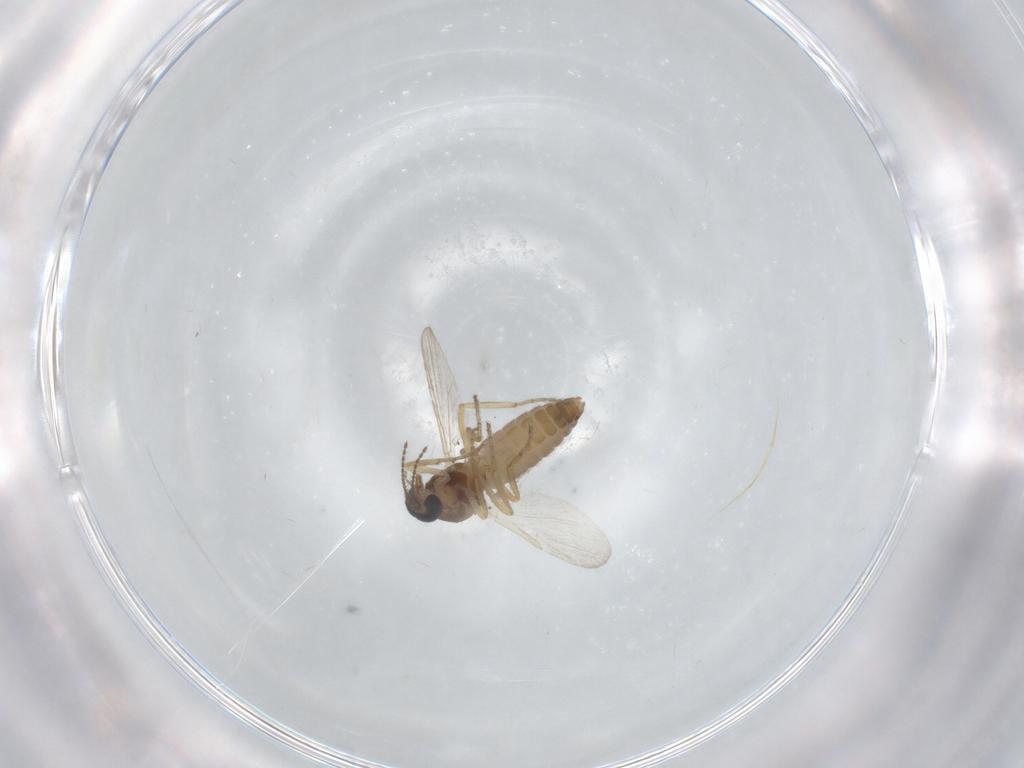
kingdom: Animalia
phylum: Arthropoda
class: Insecta
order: Diptera
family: Ceratopogonidae
